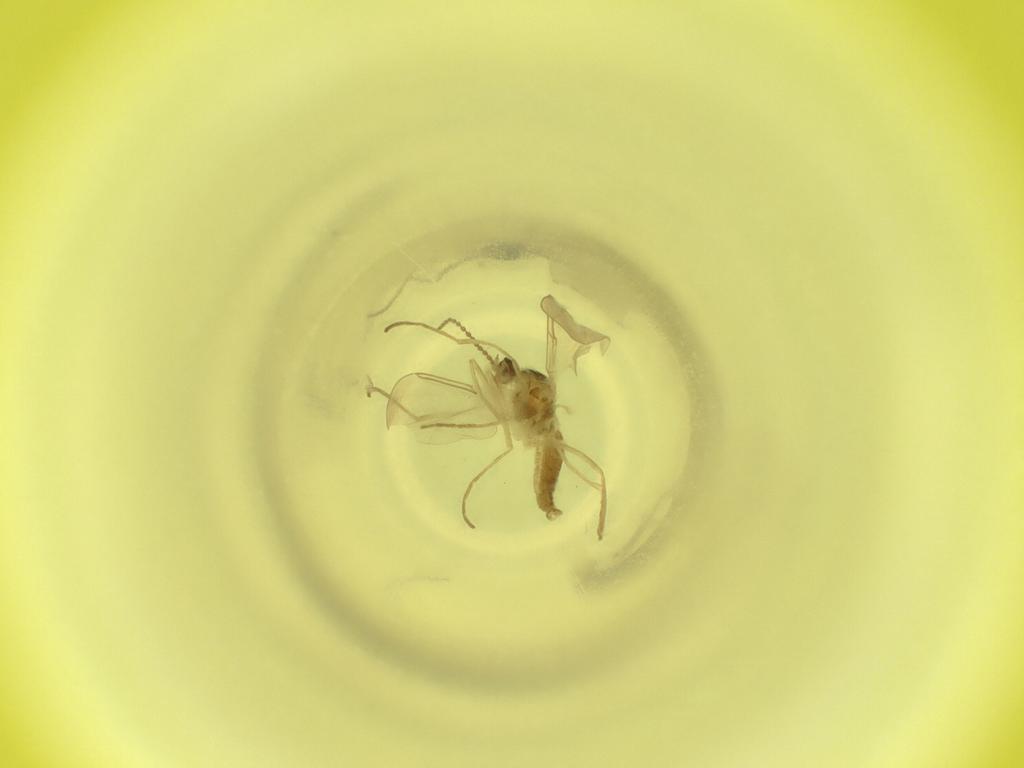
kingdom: Animalia
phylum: Arthropoda
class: Insecta
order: Diptera
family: Cecidomyiidae
